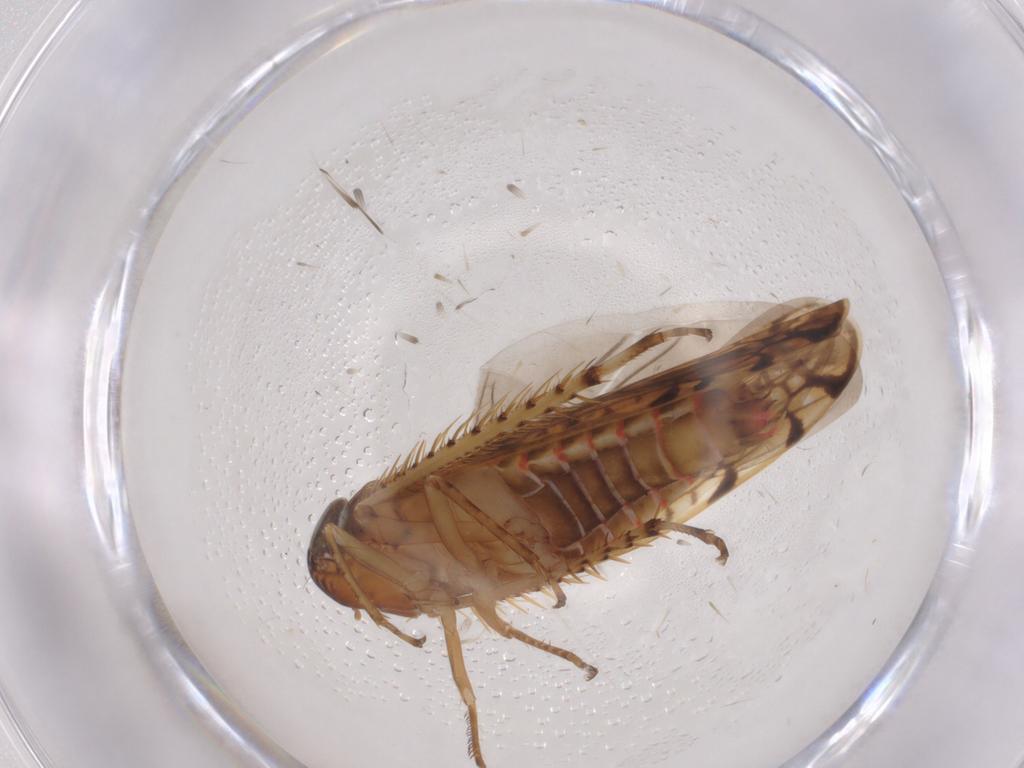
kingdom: Animalia
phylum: Arthropoda
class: Insecta
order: Hemiptera
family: Cicadellidae
